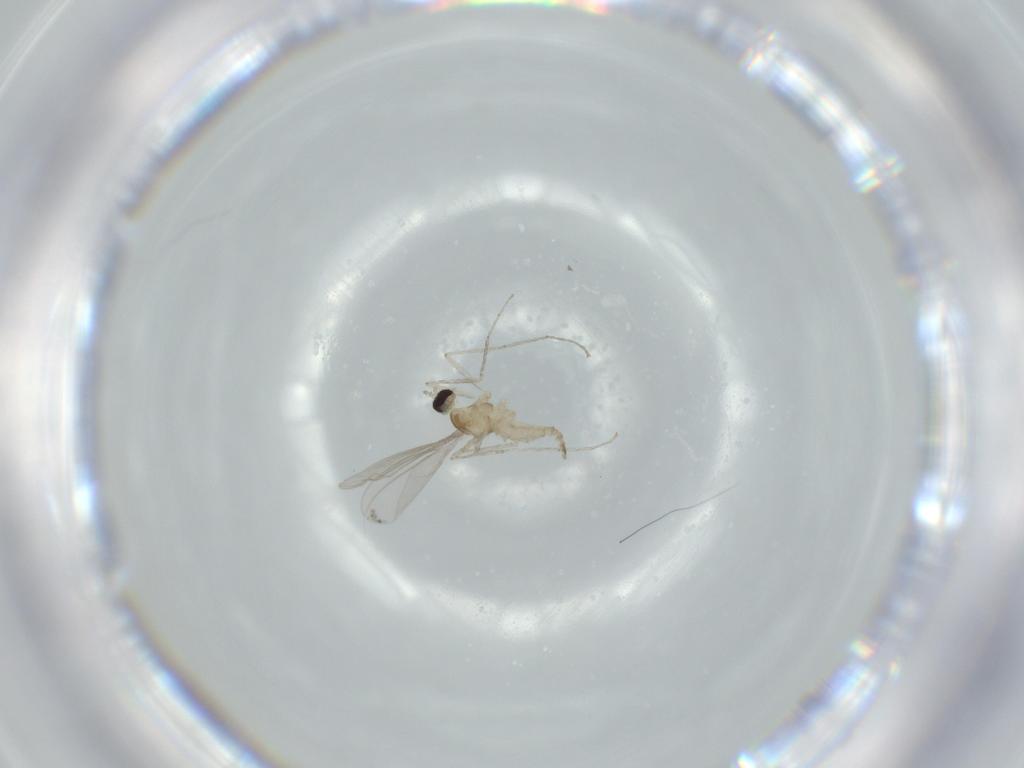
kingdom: Animalia
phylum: Arthropoda
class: Insecta
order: Diptera
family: Cecidomyiidae
